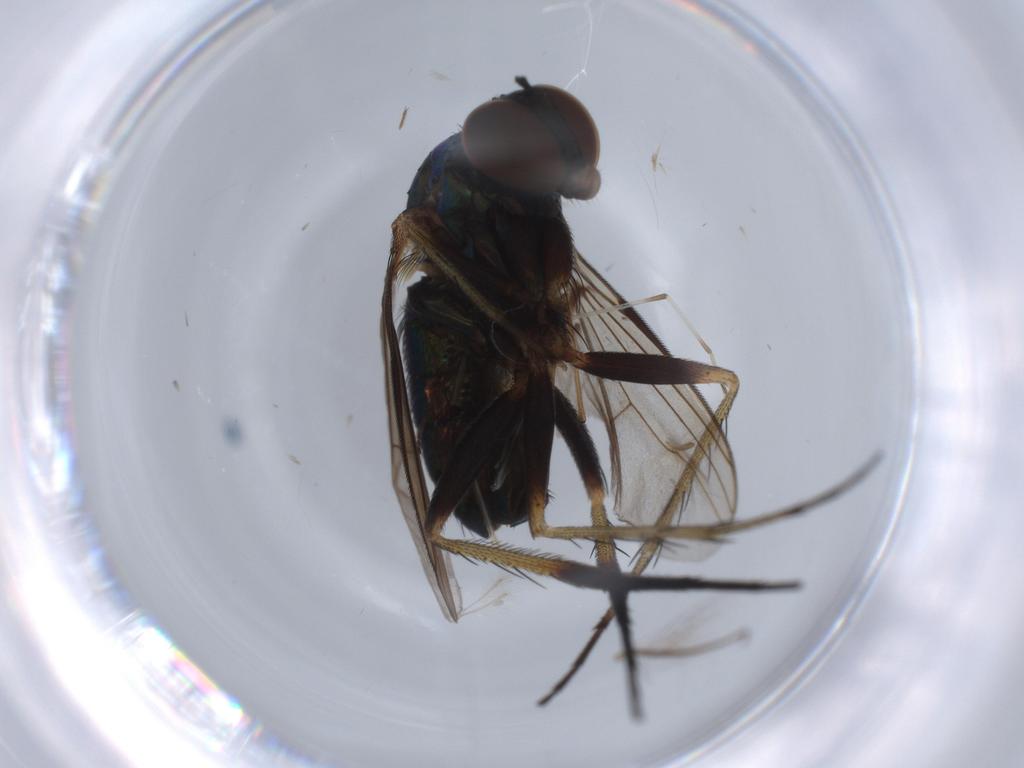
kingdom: Animalia
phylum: Arthropoda
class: Insecta
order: Diptera
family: Dolichopodidae
